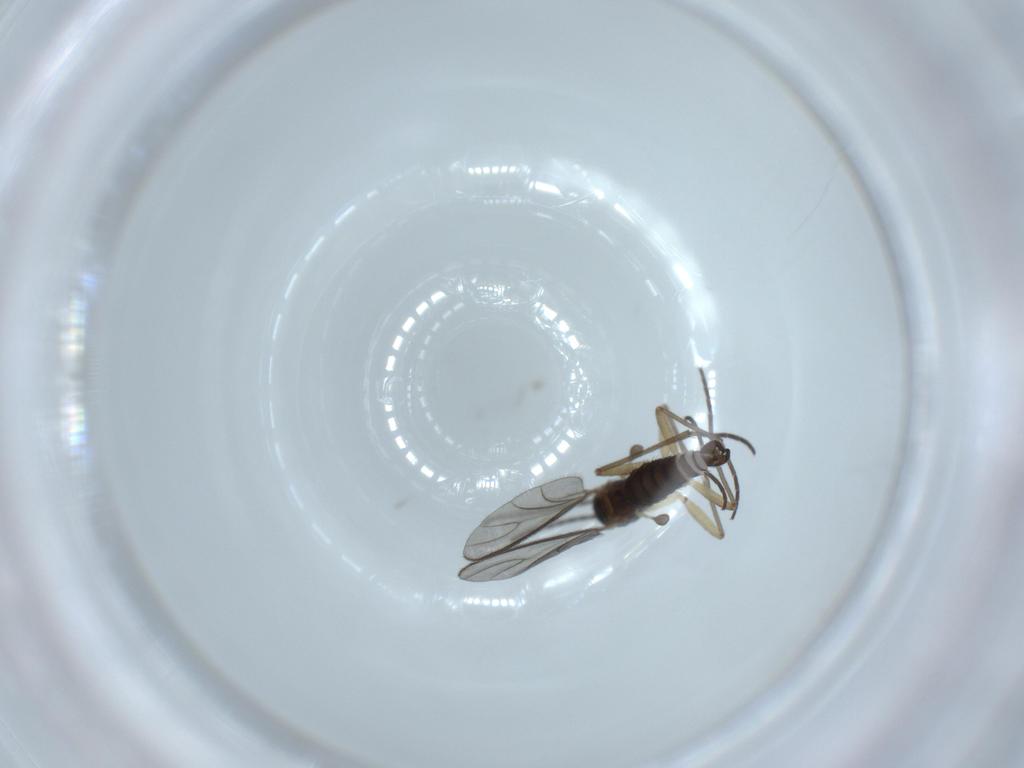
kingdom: Animalia
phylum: Arthropoda
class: Insecta
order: Diptera
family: Sciaridae
